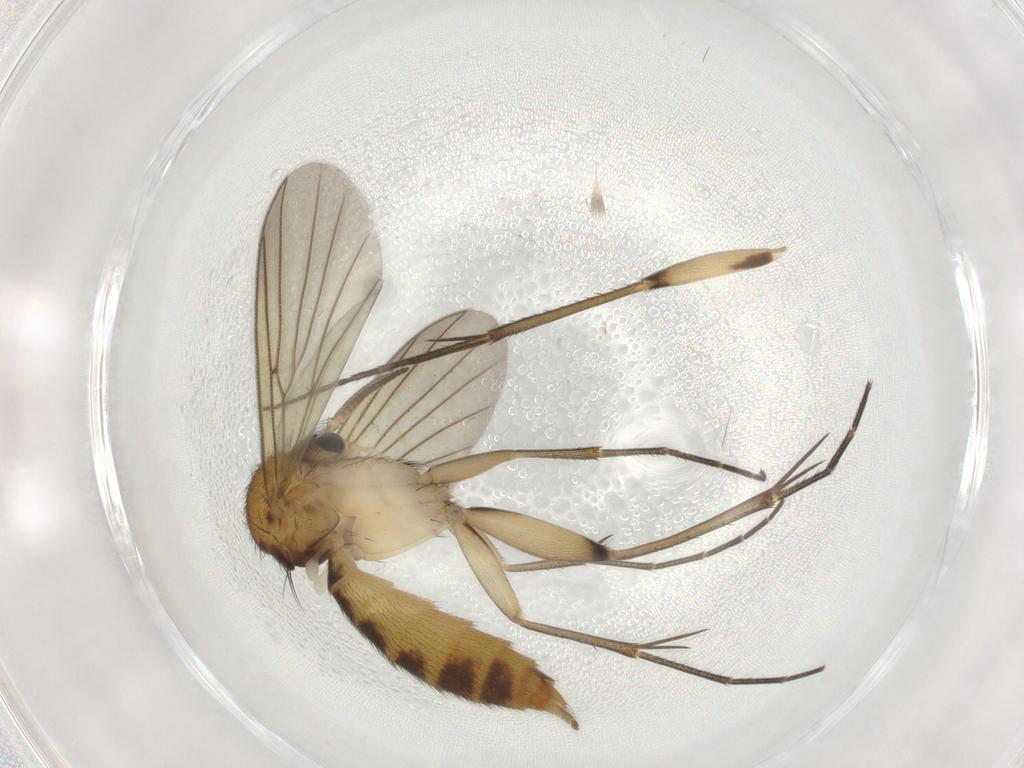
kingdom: Animalia
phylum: Arthropoda
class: Insecta
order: Diptera
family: Mycetophilidae
